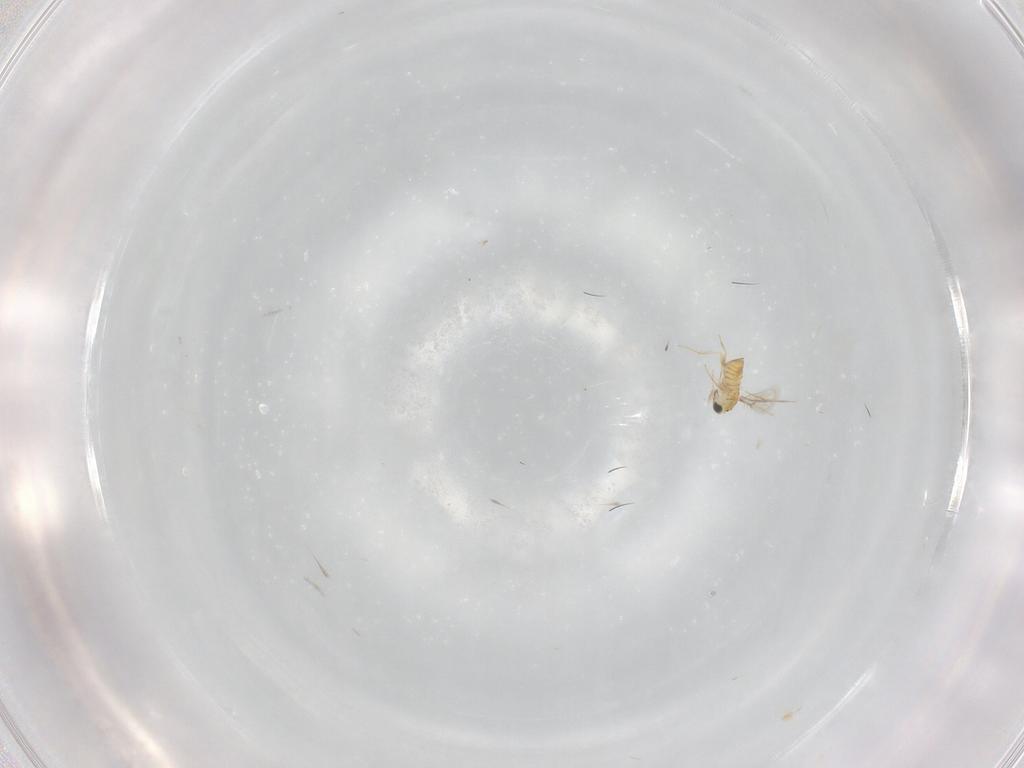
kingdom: Animalia
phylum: Arthropoda
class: Insecta
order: Hymenoptera
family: Trichogrammatidae
